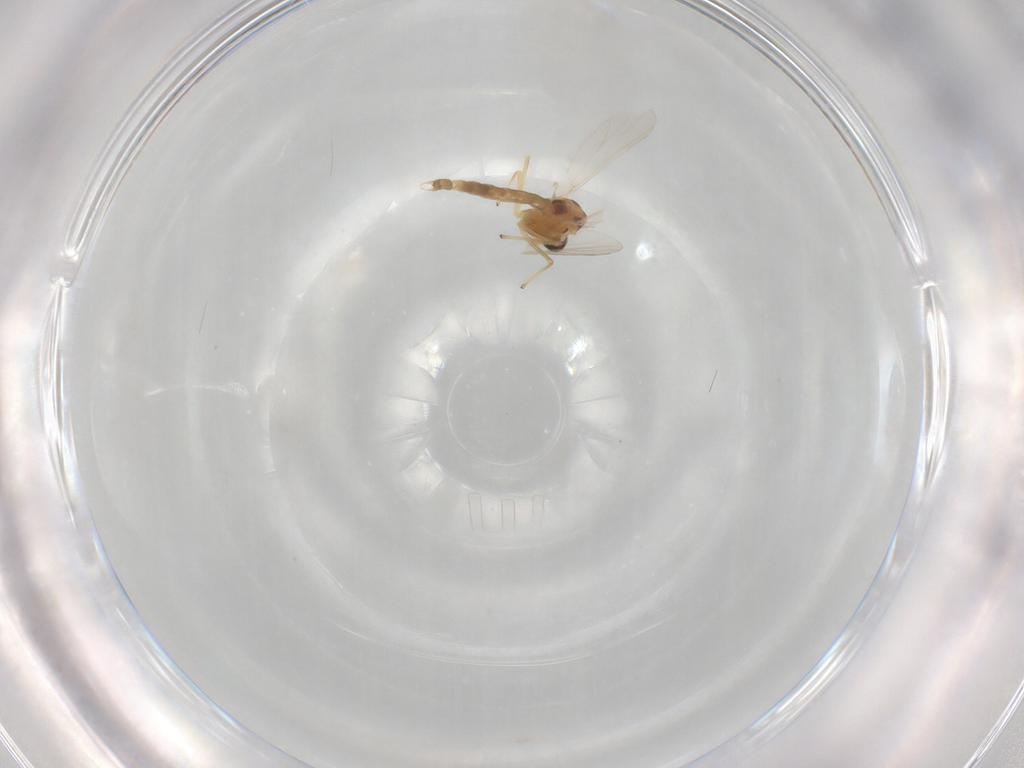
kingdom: Animalia
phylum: Arthropoda
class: Insecta
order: Diptera
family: Chironomidae
